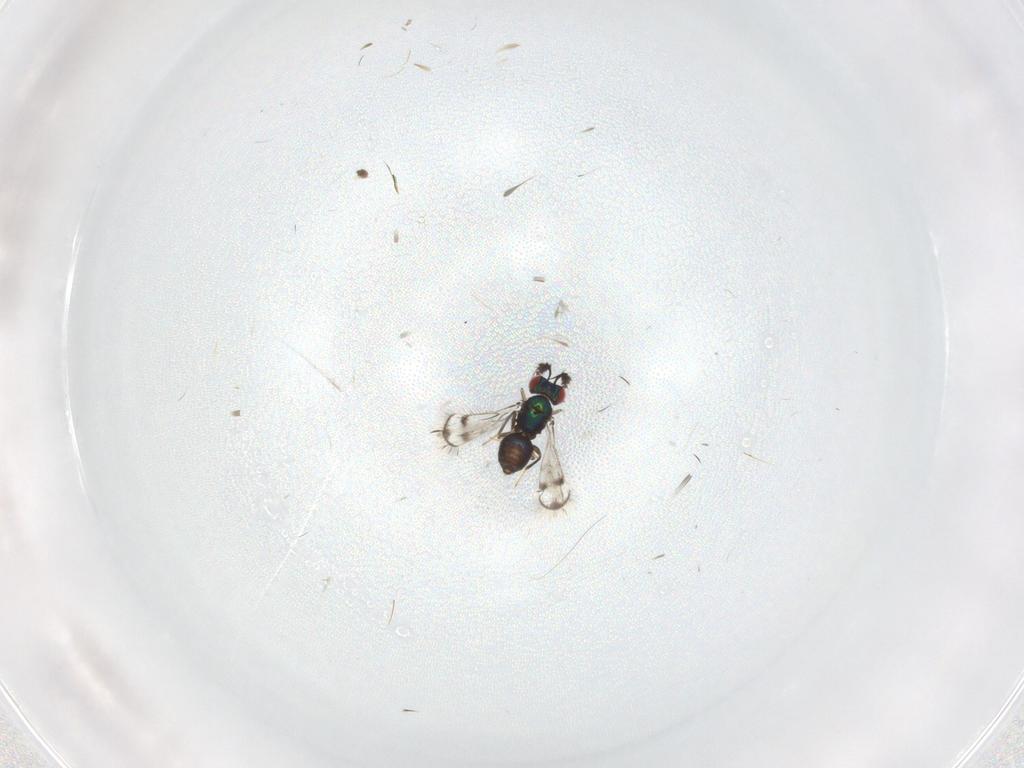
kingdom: Animalia
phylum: Arthropoda
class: Insecta
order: Hymenoptera
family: Eulophidae
